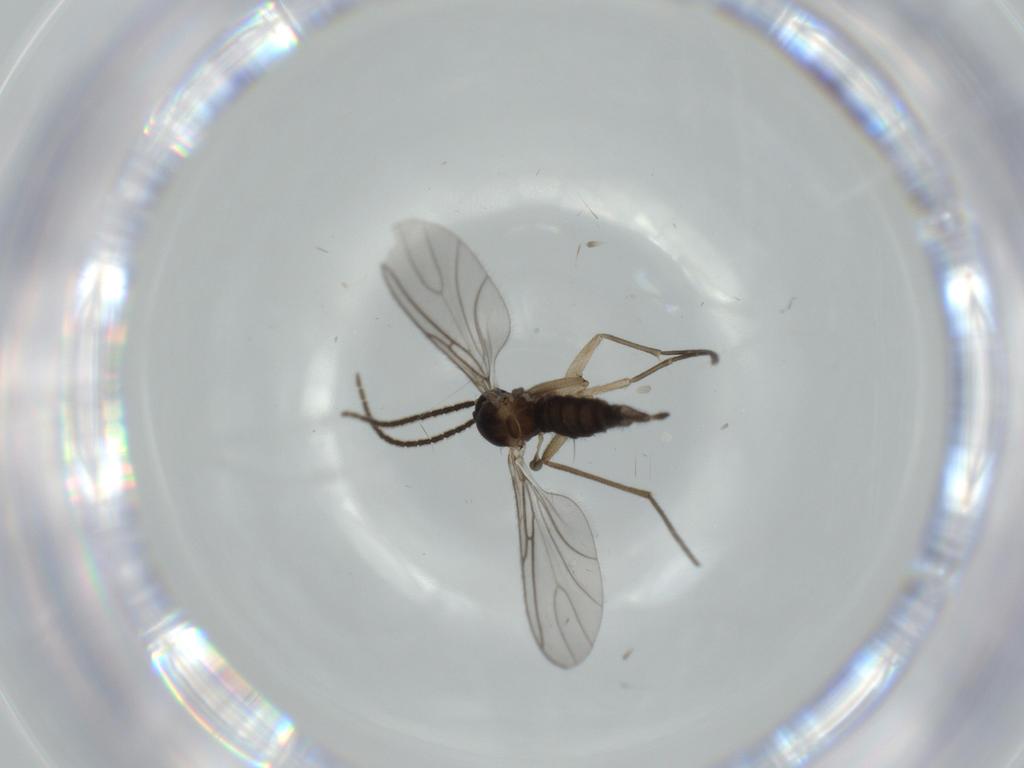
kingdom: Animalia
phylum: Arthropoda
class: Insecta
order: Diptera
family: Sciaridae
